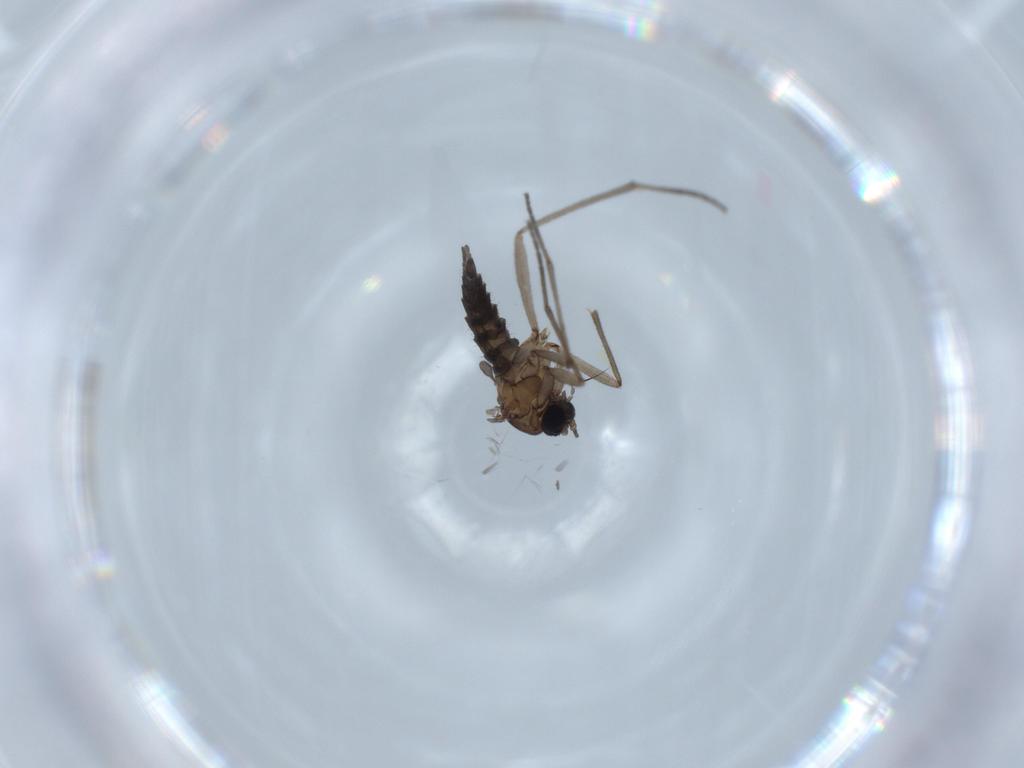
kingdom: Animalia
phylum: Arthropoda
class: Insecta
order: Diptera
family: Sciaridae
